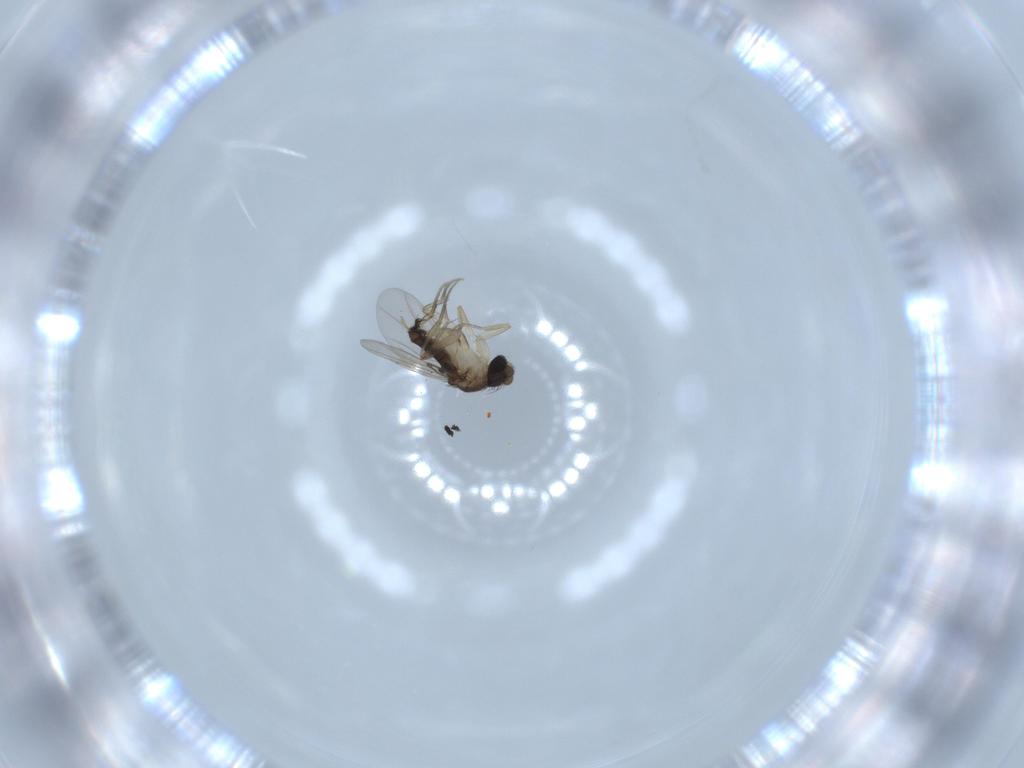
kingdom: Animalia
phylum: Arthropoda
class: Insecta
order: Diptera
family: Phoridae
